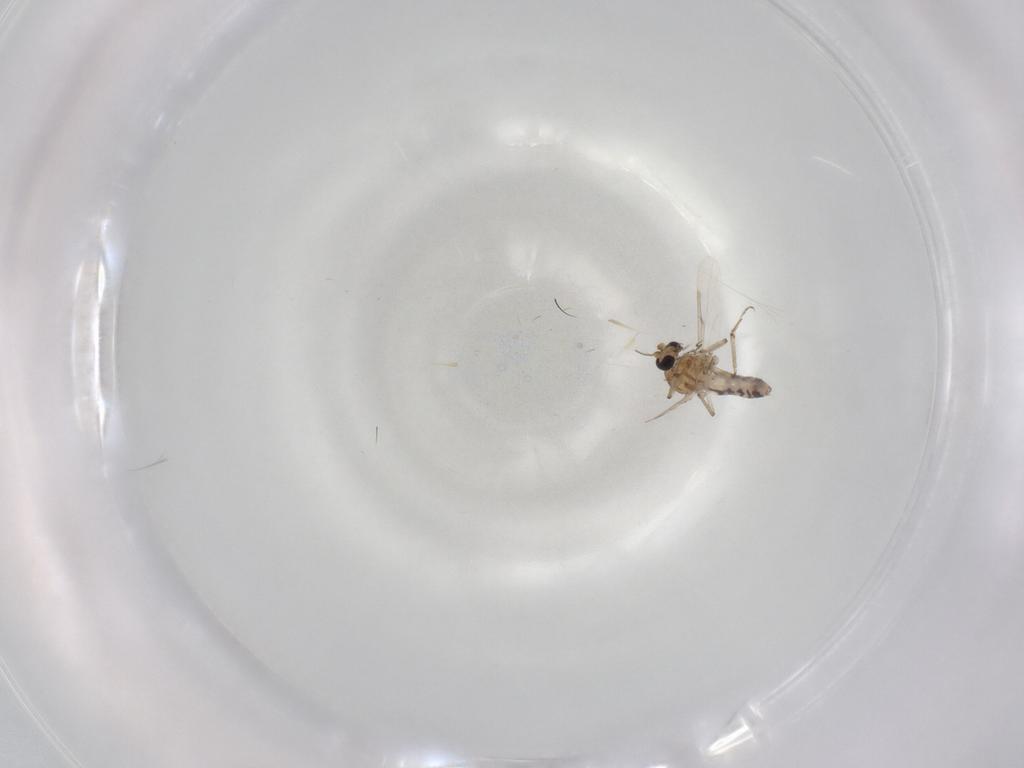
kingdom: Animalia
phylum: Arthropoda
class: Insecta
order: Diptera
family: Ceratopogonidae
